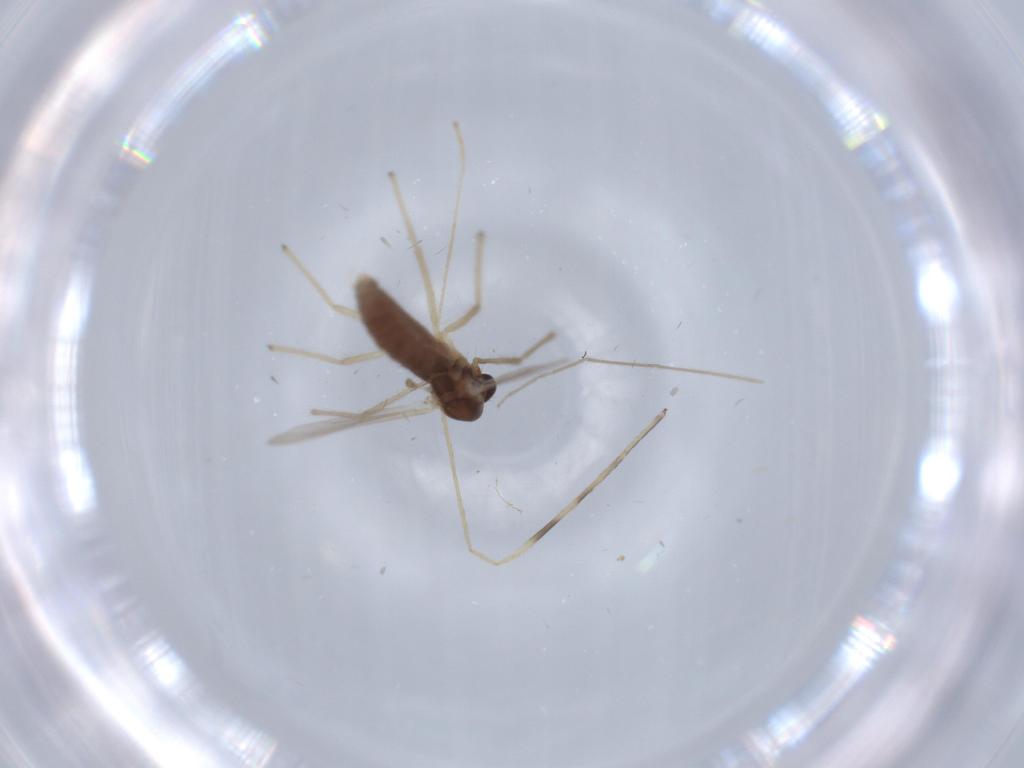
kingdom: Animalia
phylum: Arthropoda
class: Insecta
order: Diptera
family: Chironomidae
